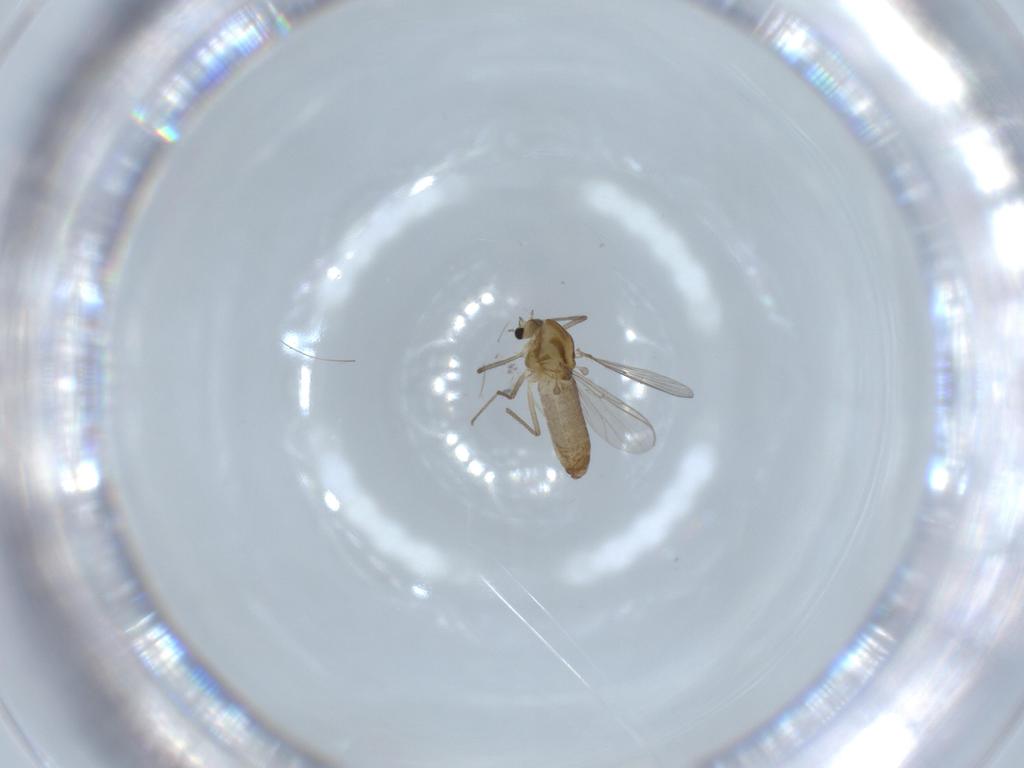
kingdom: Animalia
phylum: Arthropoda
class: Insecta
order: Diptera
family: Chironomidae
